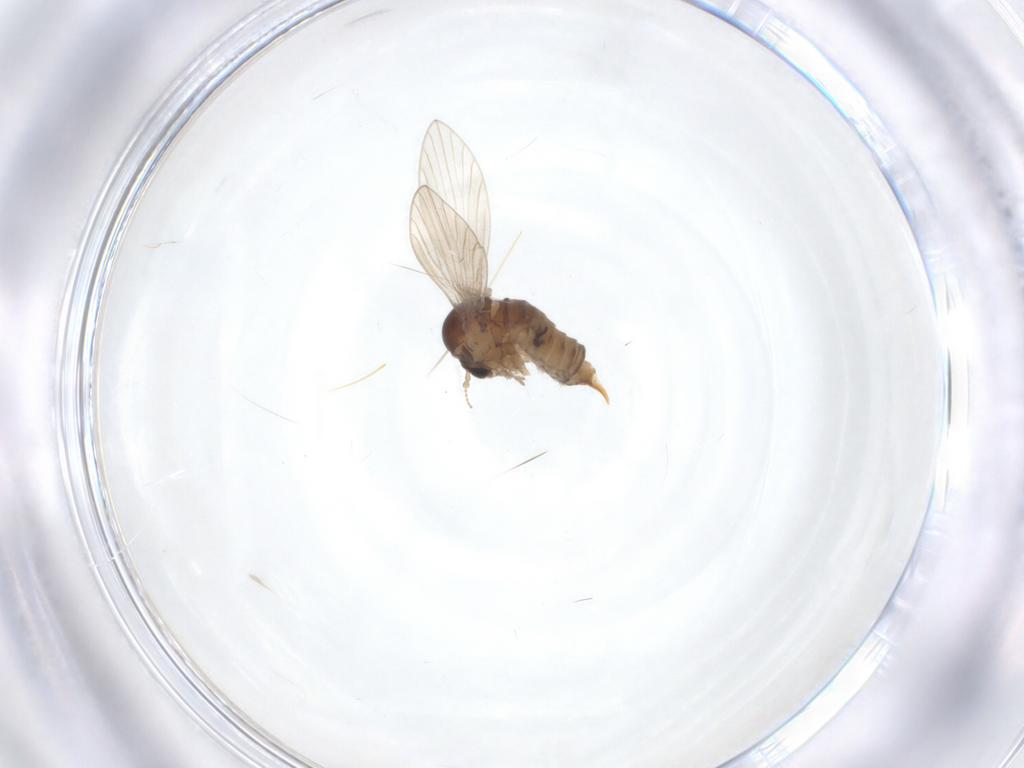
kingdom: Animalia
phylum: Arthropoda
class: Insecta
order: Diptera
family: Psychodidae
